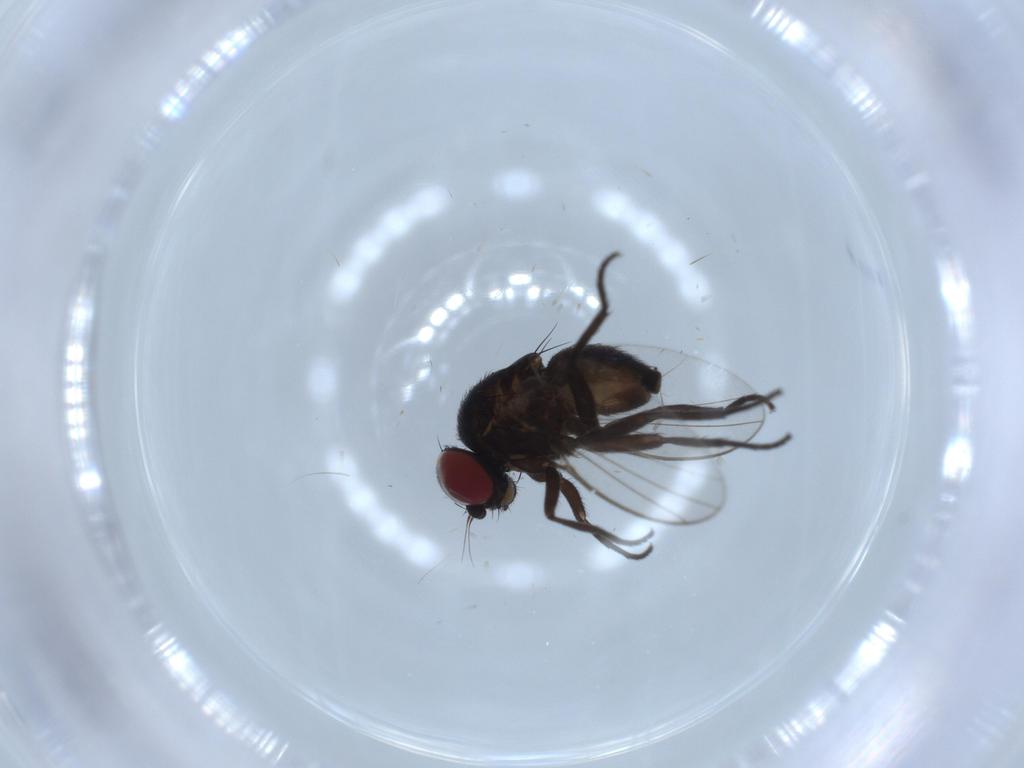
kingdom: Animalia
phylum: Arthropoda
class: Insecta
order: Diptera
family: Agromyzidae
